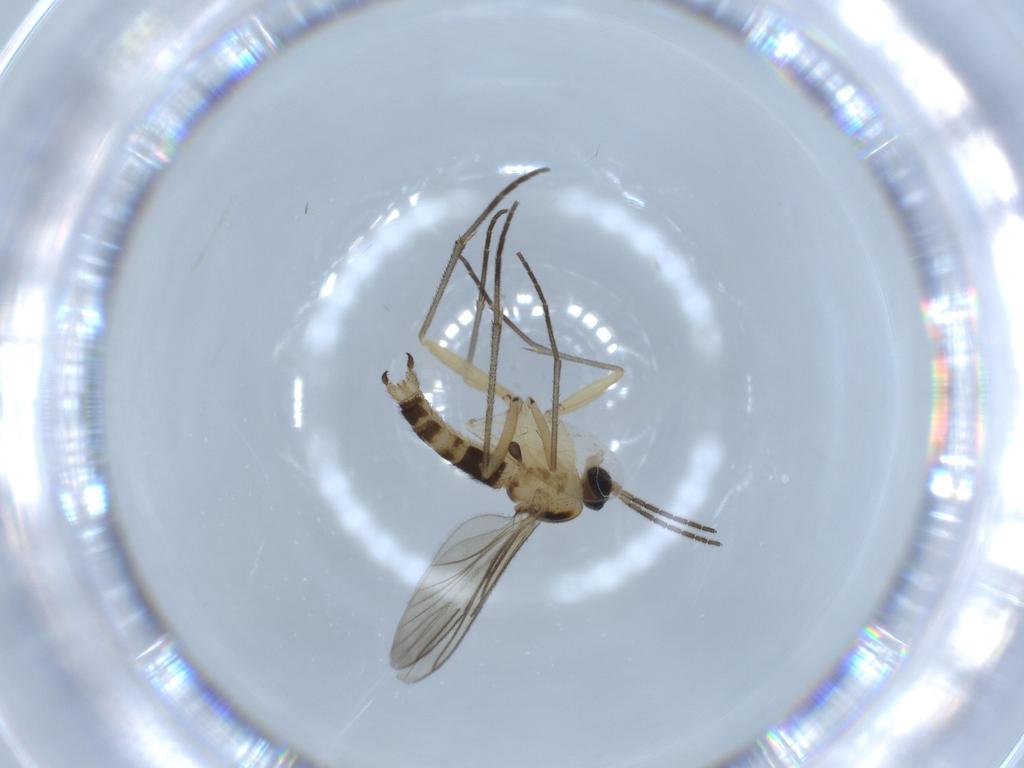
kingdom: Animalia
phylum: Arthropoda
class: Insecta
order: Diptera
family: Sciaridae
